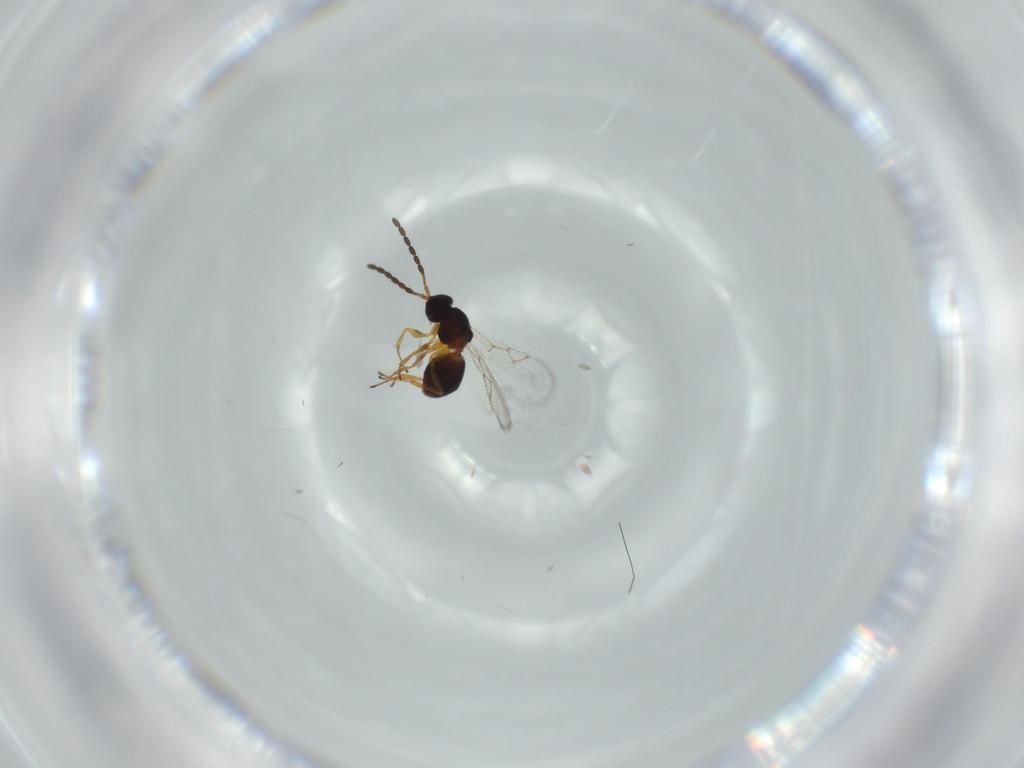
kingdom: Animalia
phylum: Arthropoda
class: Insecta
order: Hymenoptera
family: Figitidae
